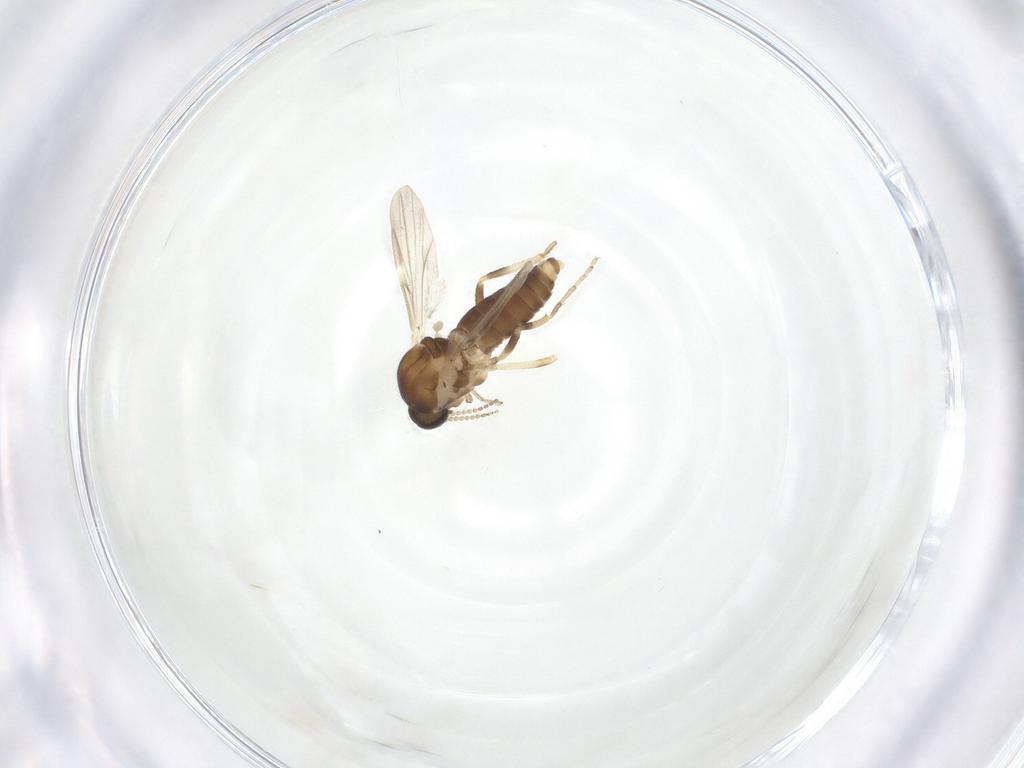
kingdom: Animalia
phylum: Arthropoda
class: Insecta
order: Diptera
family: Ceratopogonidae
